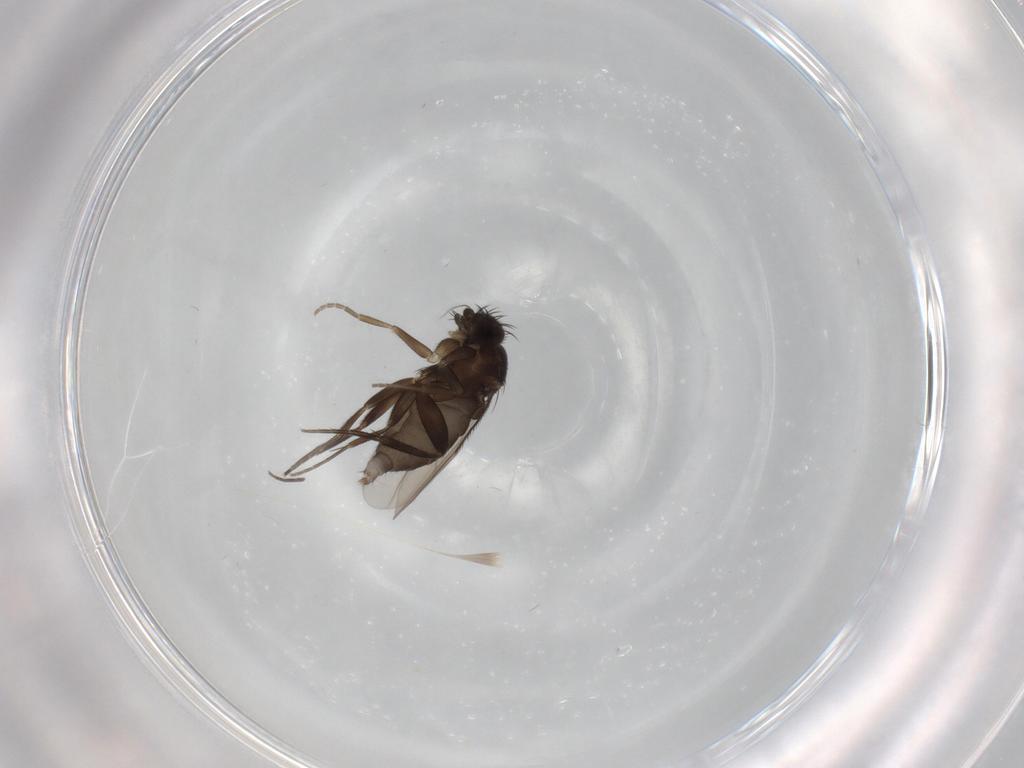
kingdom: Animalia
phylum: Arthropoda
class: Insecta
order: Diptera
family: Phoridae
